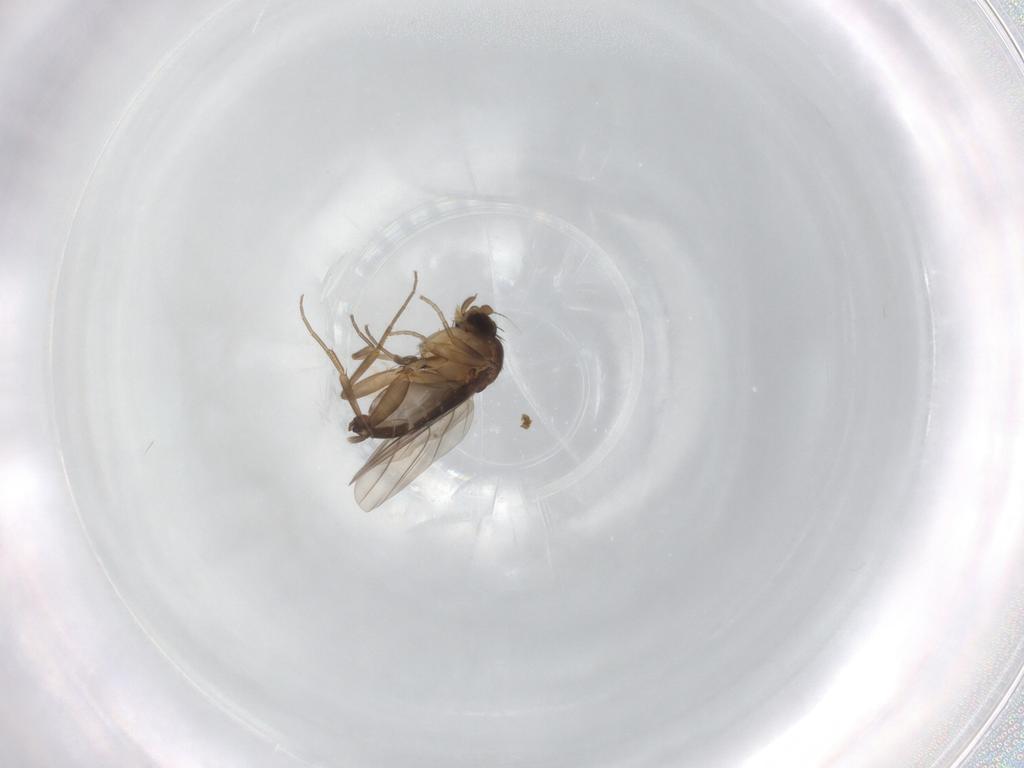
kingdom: Animalia
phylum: Arthropoda
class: Insecta
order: Diptera
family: Phoridae
